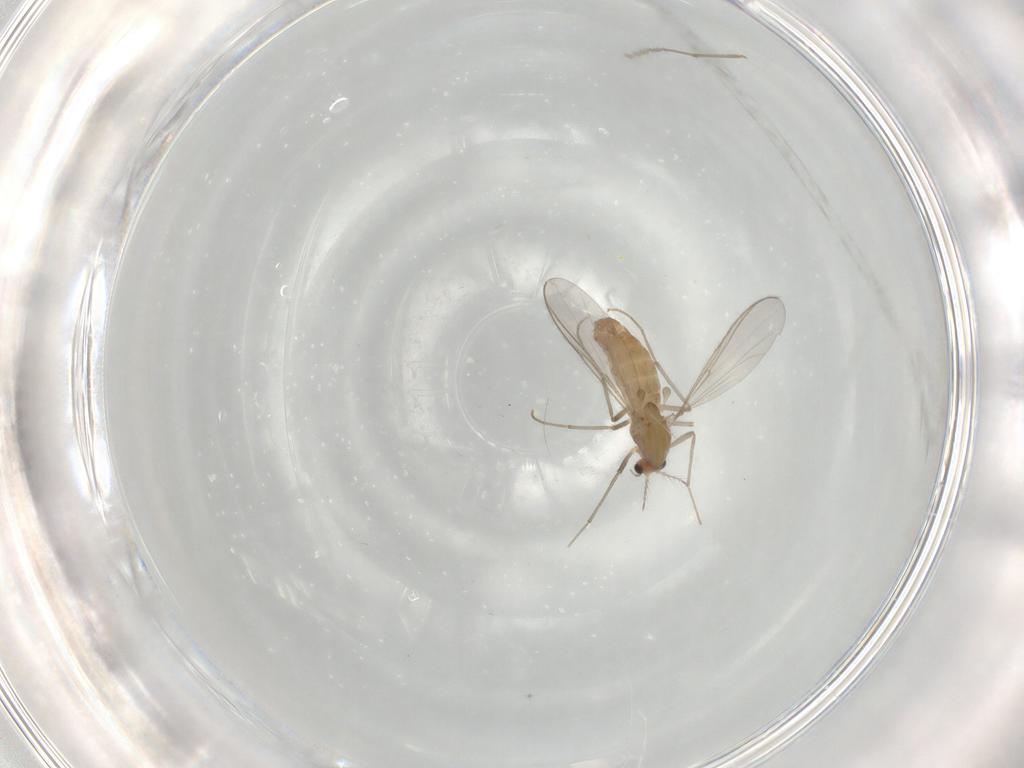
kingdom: Animalia
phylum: Arthropoda
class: Insecta
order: Diptera
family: Chironomidae
